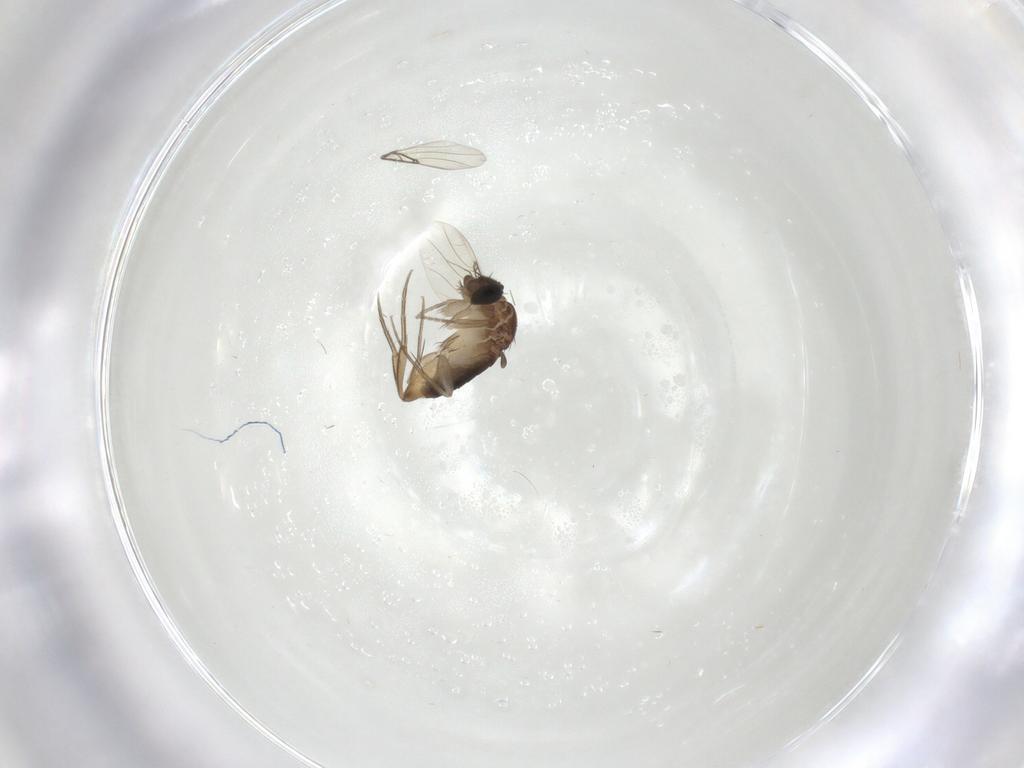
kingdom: Animalia
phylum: Arthropoda
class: Insecta
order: Diptera
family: Phoridae
